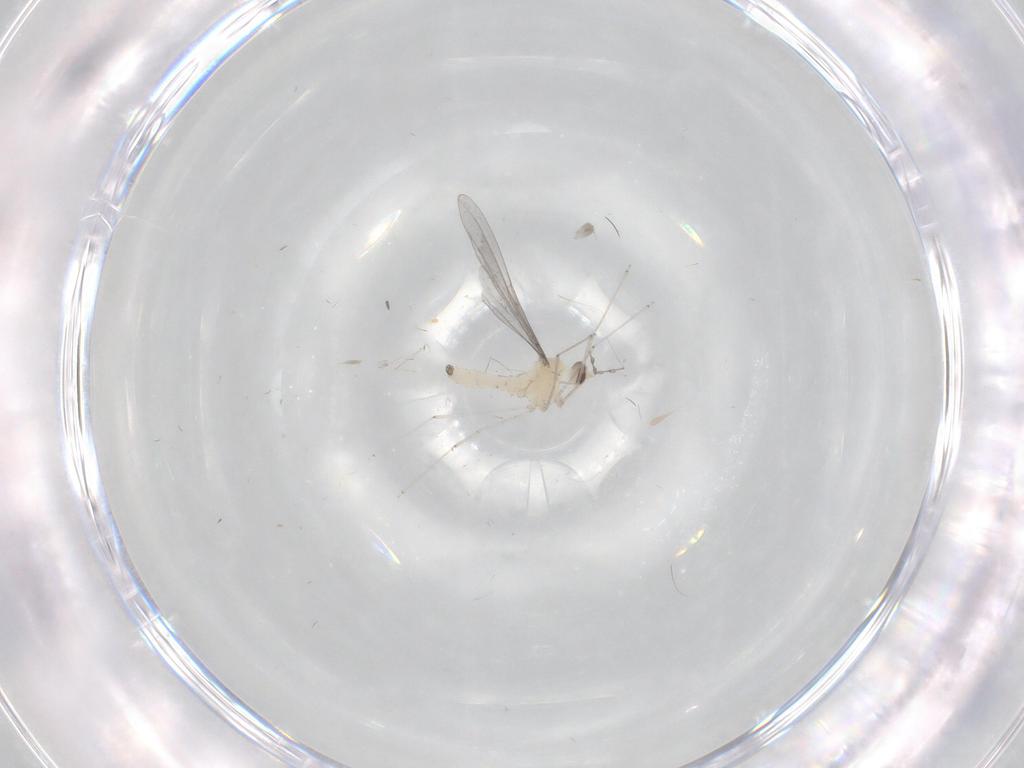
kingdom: Animalia
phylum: Arthropoda
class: Insecta
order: Diptera
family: Cecidomyiidae
